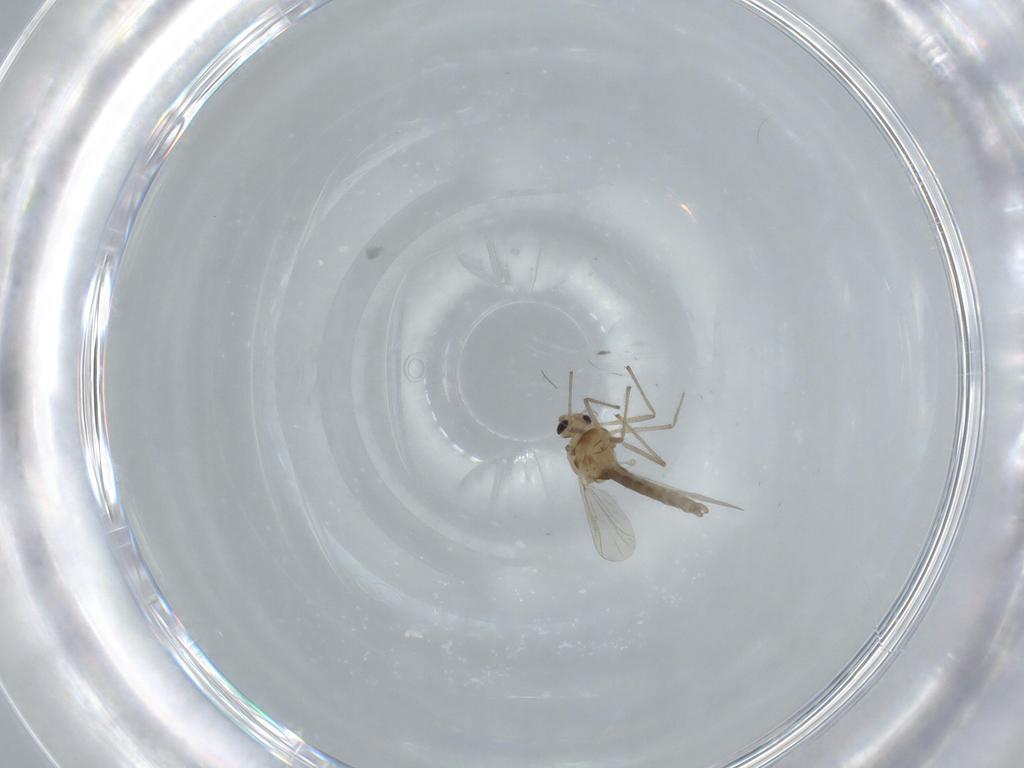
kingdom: Animalia
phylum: Arthropoda
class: Insecta
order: Diptera
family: Chironomidae
